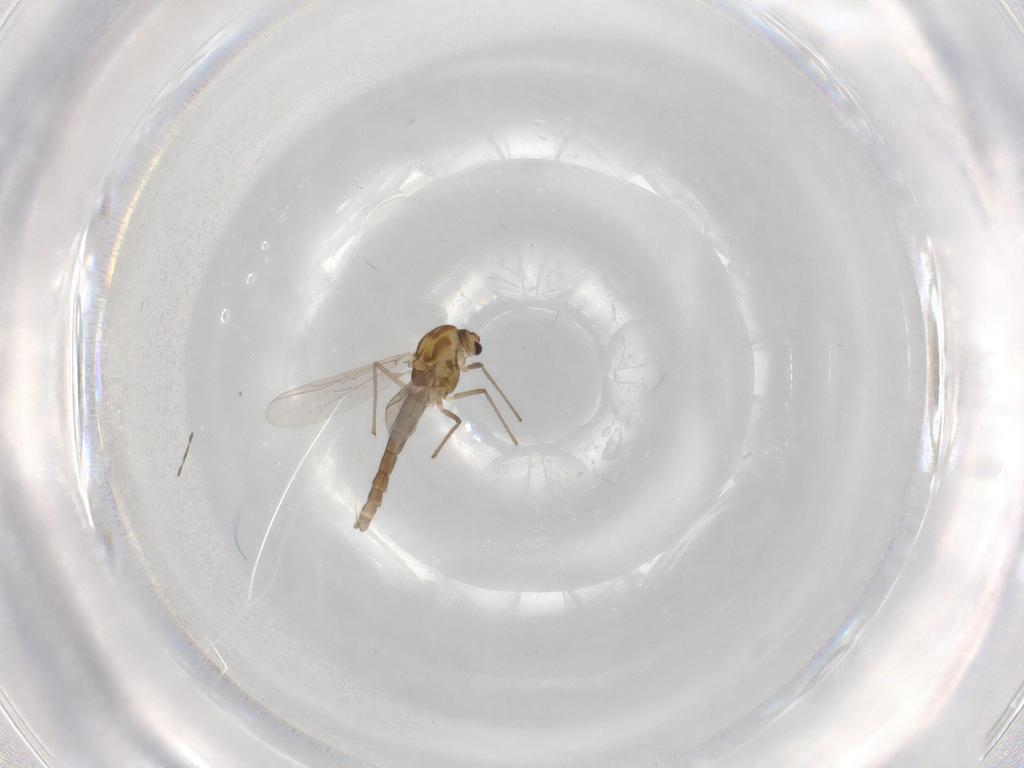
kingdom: Animalia
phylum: Arthropoda
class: Insecta
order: Diptera
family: Chironomidae
